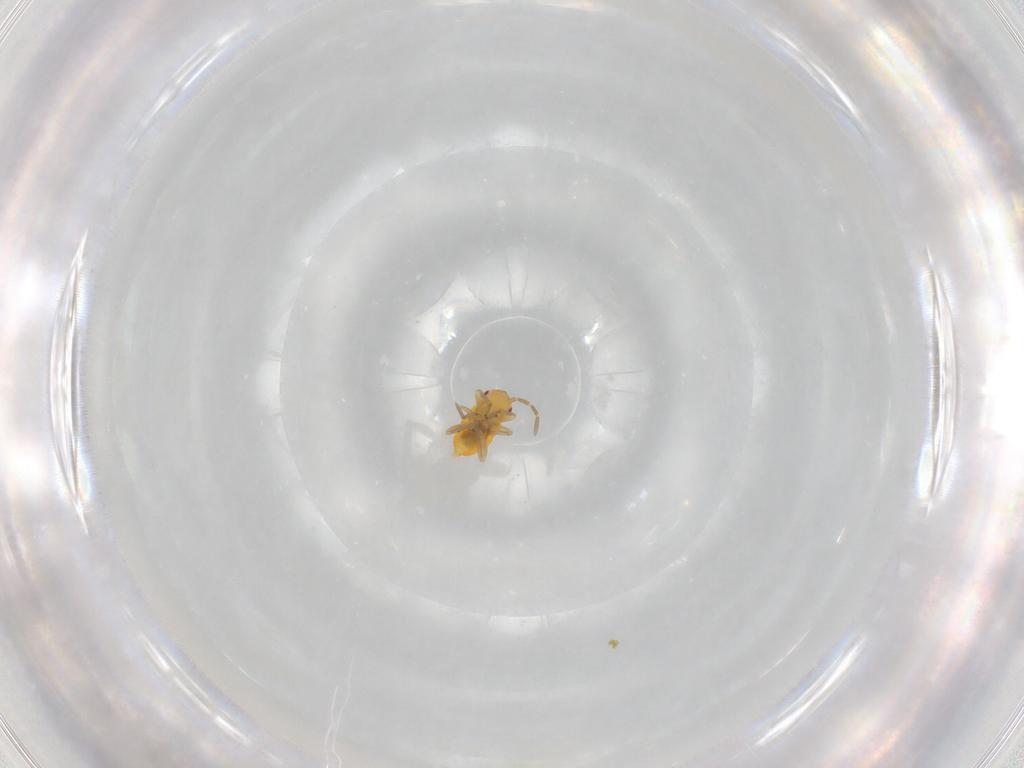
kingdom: Animalia
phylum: Arthropoda
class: Insecta
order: Hemiptera
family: Miridae
